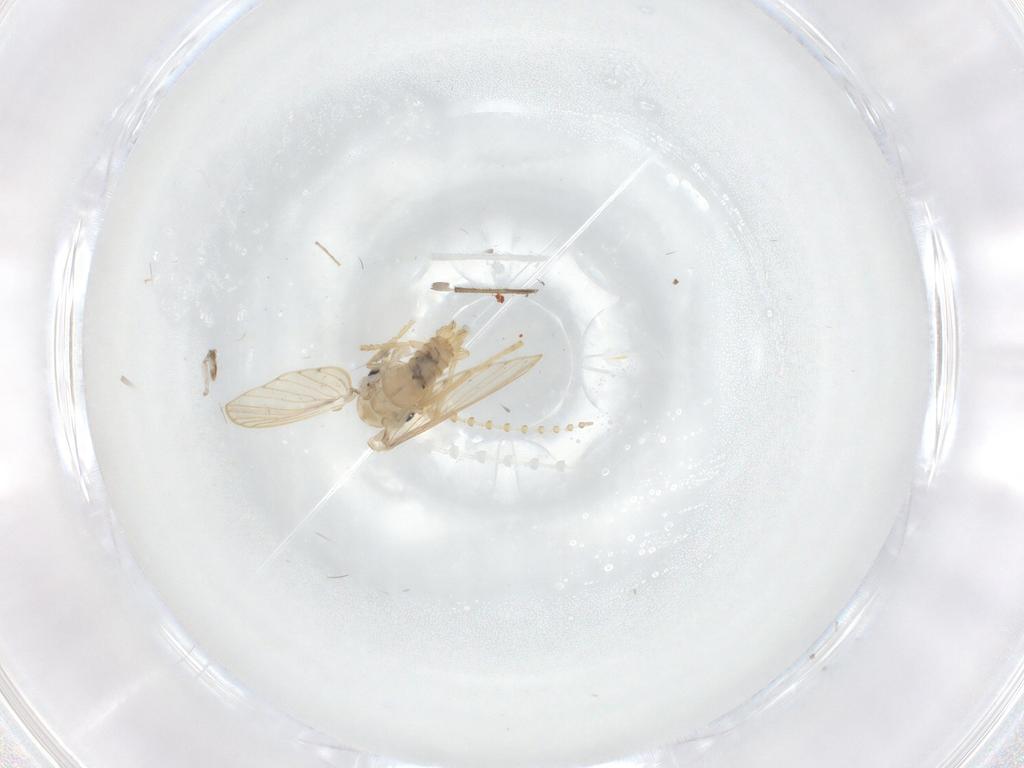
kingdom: Animalia
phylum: Arthropoda
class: Insecta
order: Diptera
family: Psychodidae
